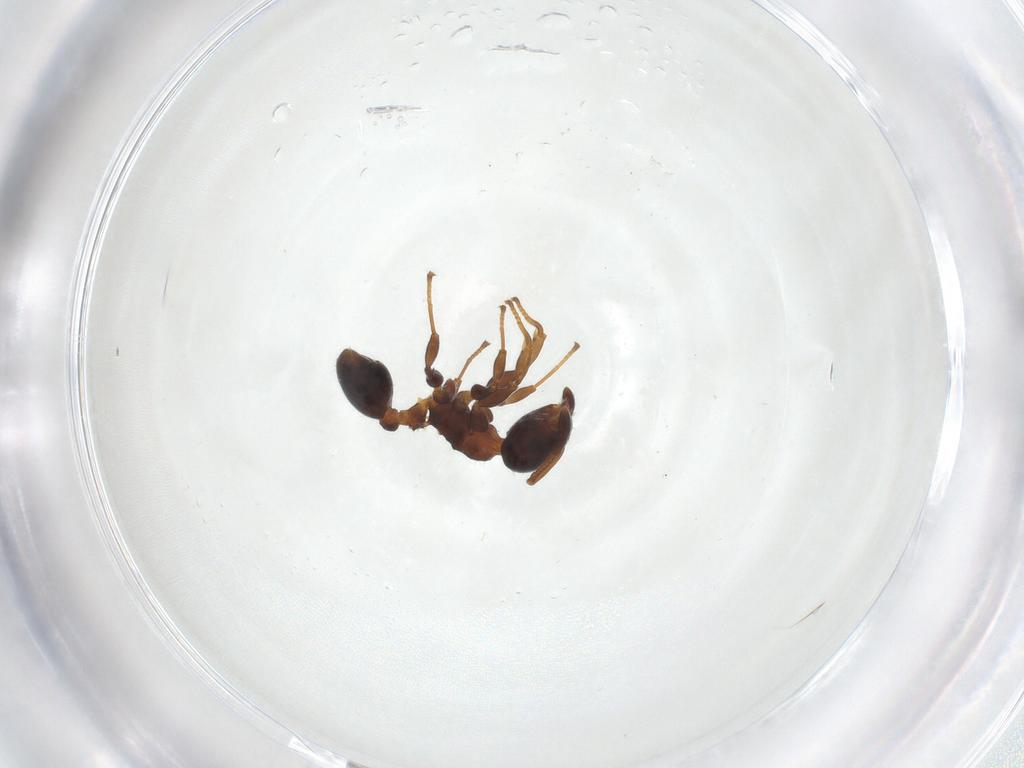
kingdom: Animalia
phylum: Arthropoda
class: Insecta
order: Hymenoptera
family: Formicidae
